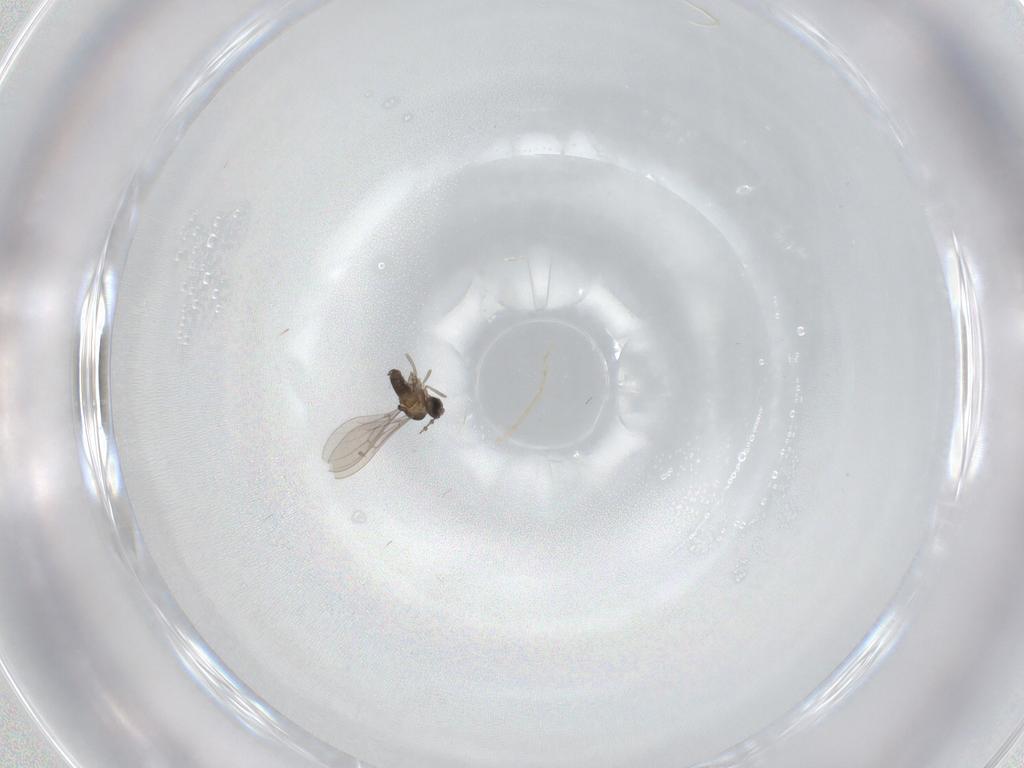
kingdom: Animalia
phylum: Arthropoda
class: Insecta
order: Diptera
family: Cecidomyiidae
